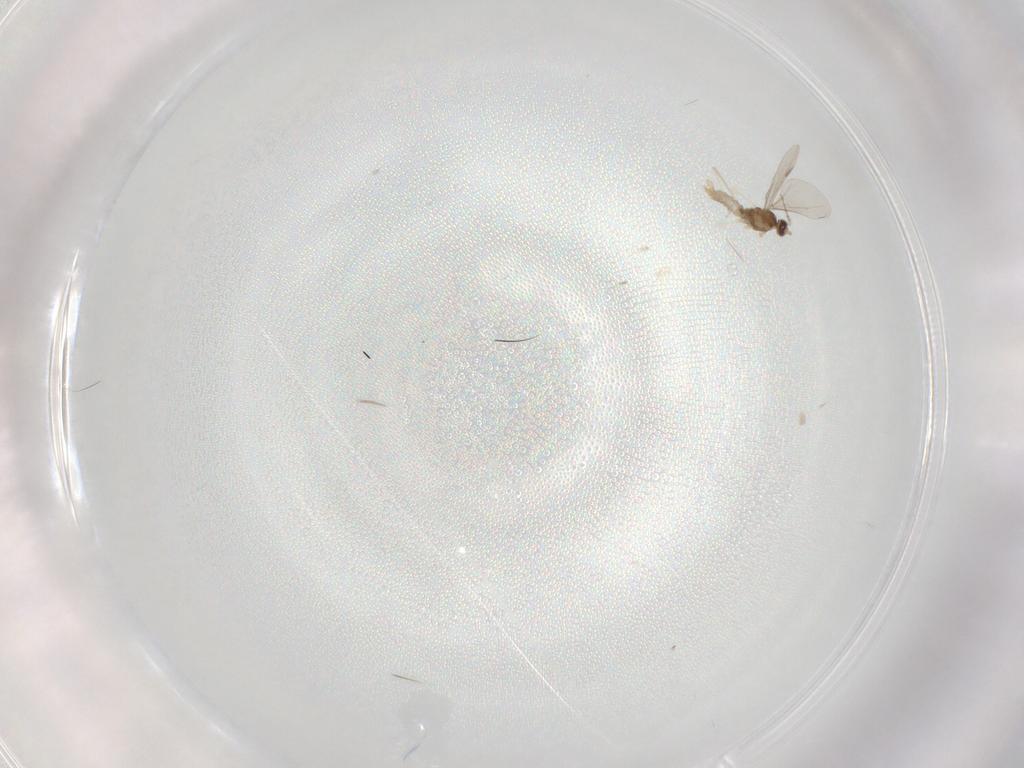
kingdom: Animalia
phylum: Arthropoda
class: Insecta
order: Diptera
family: Cecidomyiidae
